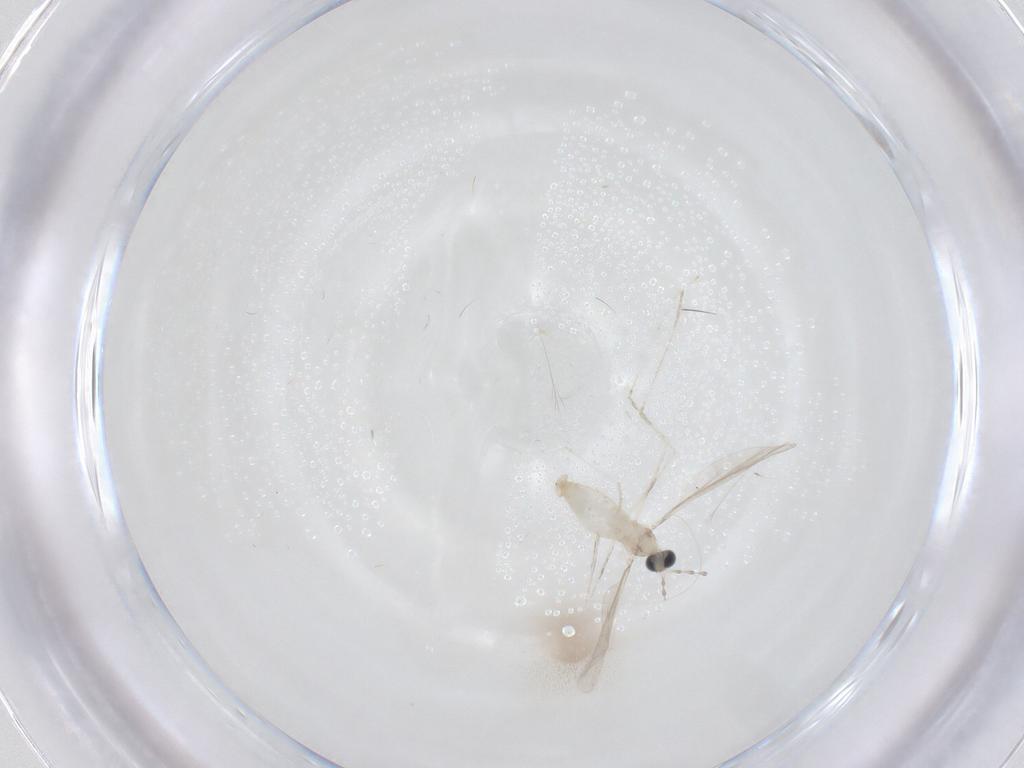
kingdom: Animalia
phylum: Arthropoda
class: Insecta
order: Diptera
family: Cecidomyiidae
